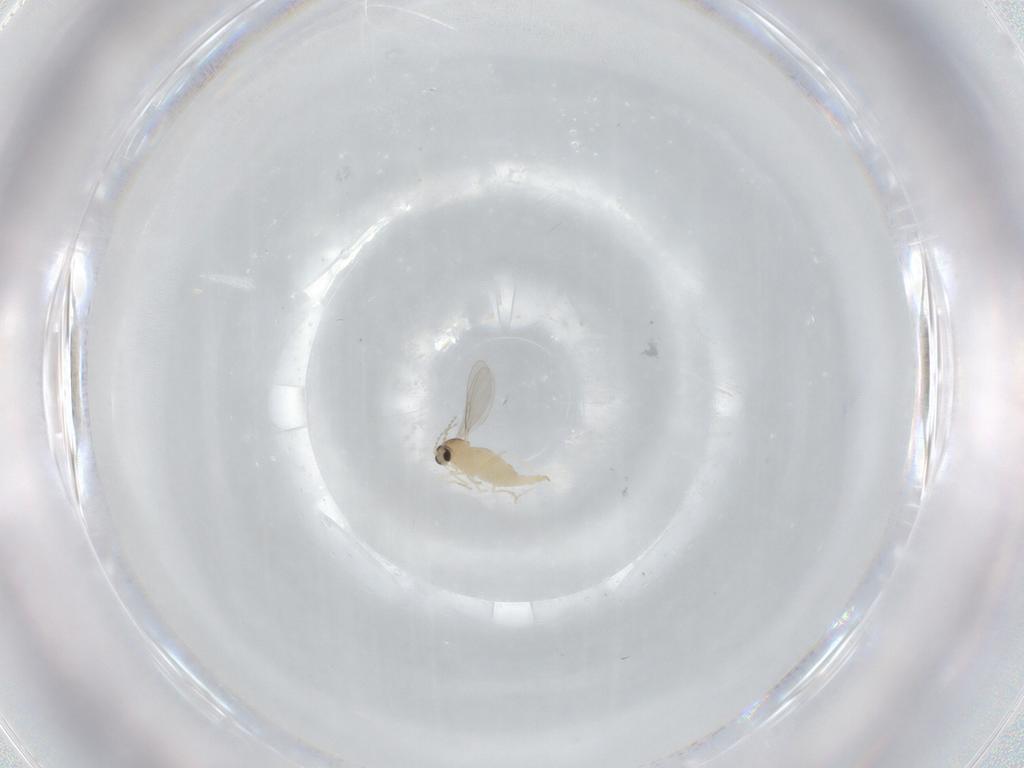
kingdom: Animalia
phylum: Arthropoda
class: Insecta
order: Diptera
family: Cecidomyiidae
